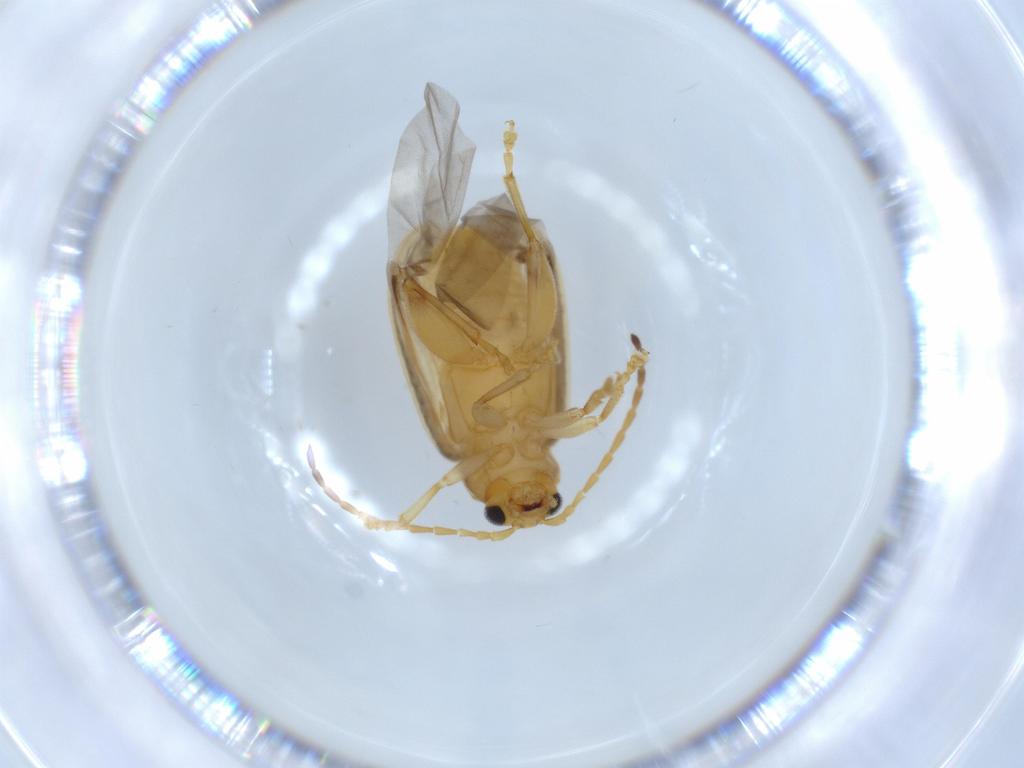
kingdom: Animalia
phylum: Arthropoda
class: Insecta
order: Coleoptera
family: Chrysomelidae
